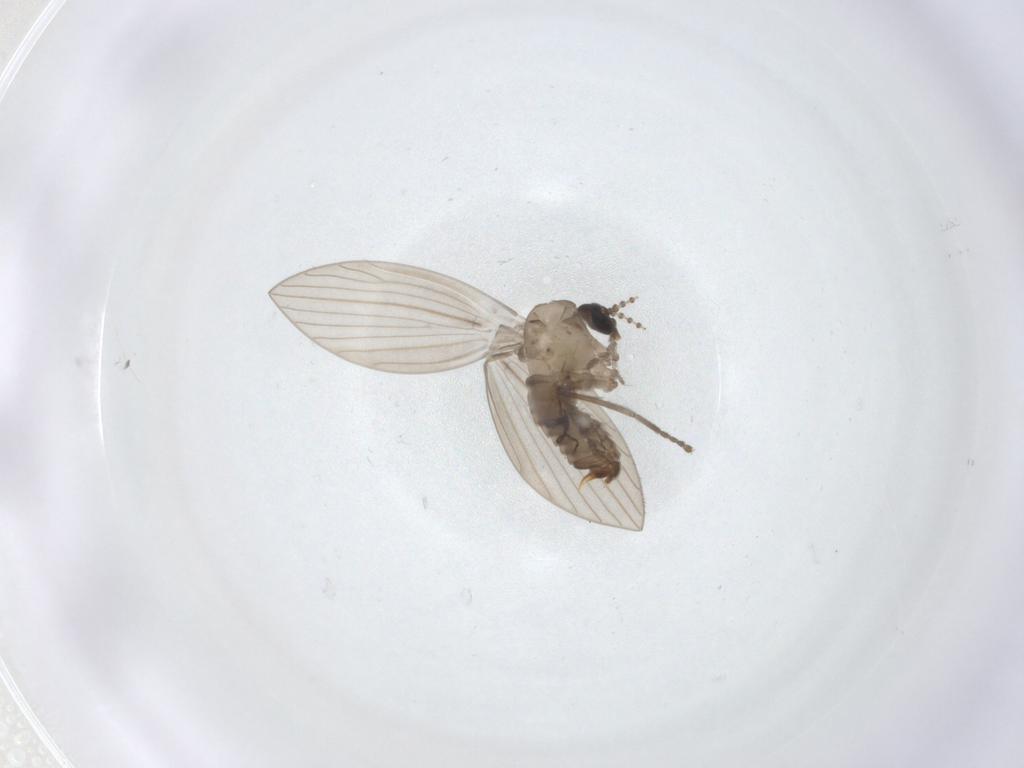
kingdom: Animalia
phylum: Arthropoda
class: Insecta
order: Diptera
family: Psychodidae
